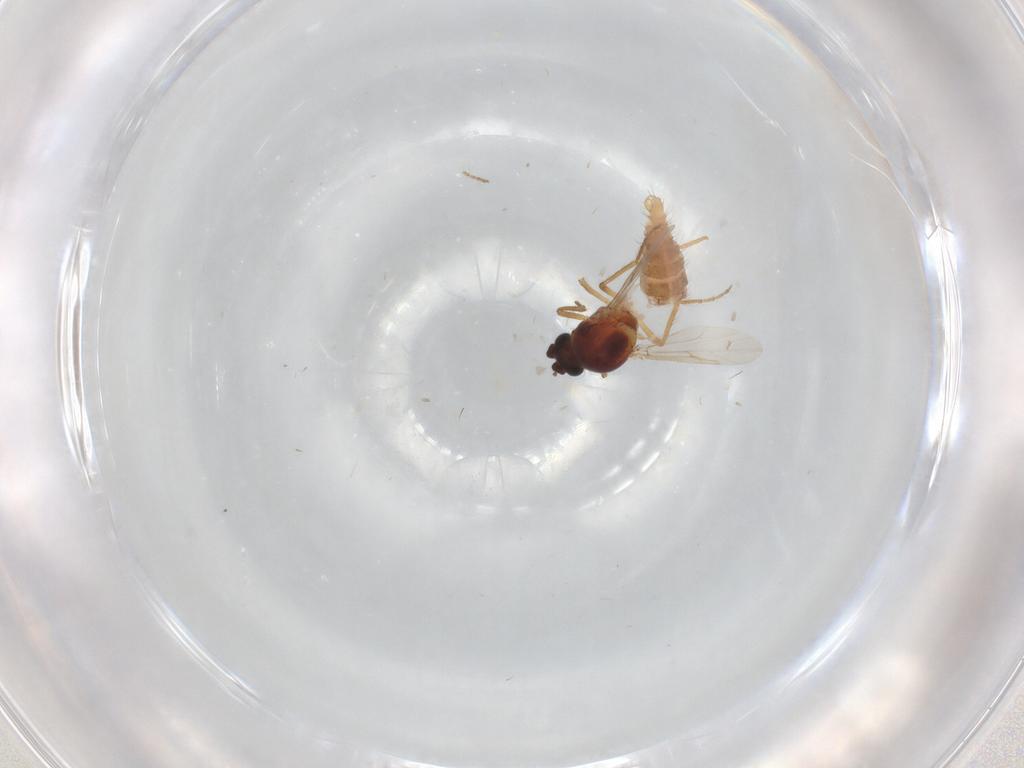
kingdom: Animalia
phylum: Arthropoda
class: Insecta
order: Diptera
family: Ceratopogonidae
